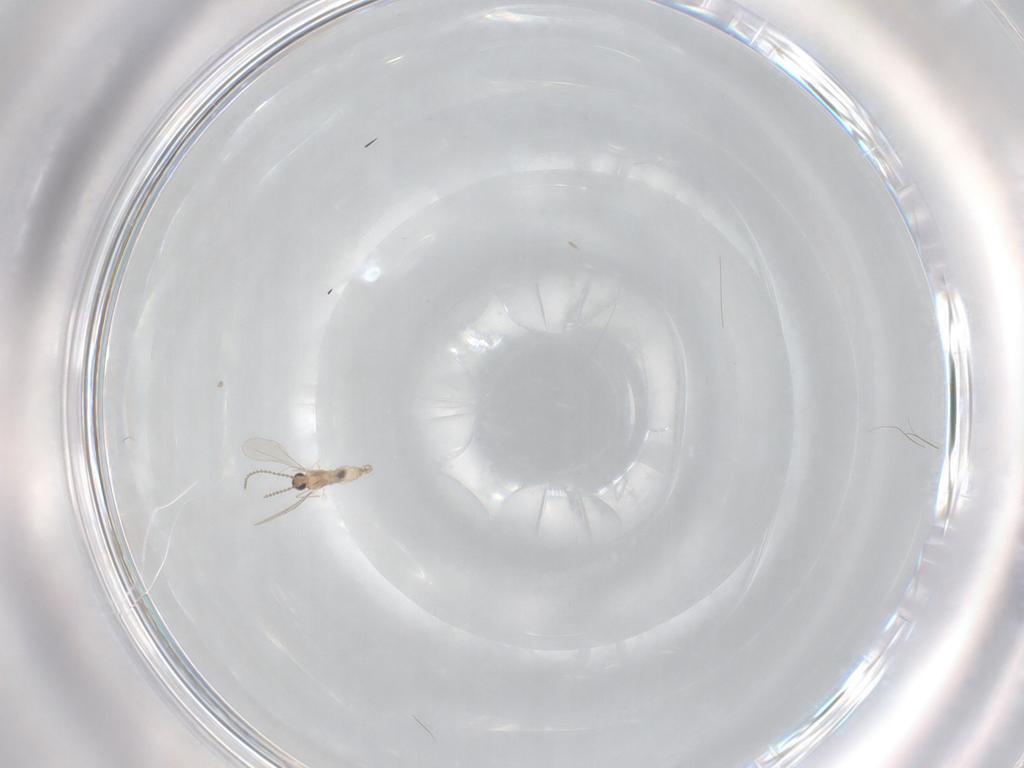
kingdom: Animalia
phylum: Arthropoda
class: Insecta
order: Diptera
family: Cecidomyiidae
